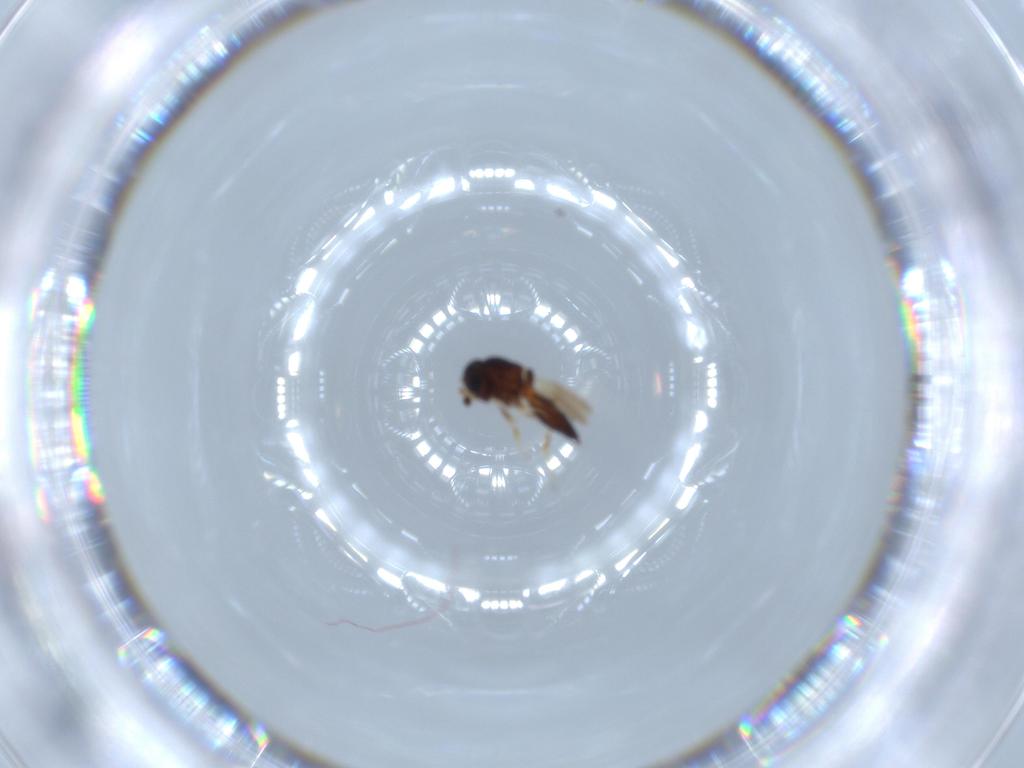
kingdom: Animalia
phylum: Arthropoda
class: Insecta
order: Hymenoptera
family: Scelionidae
